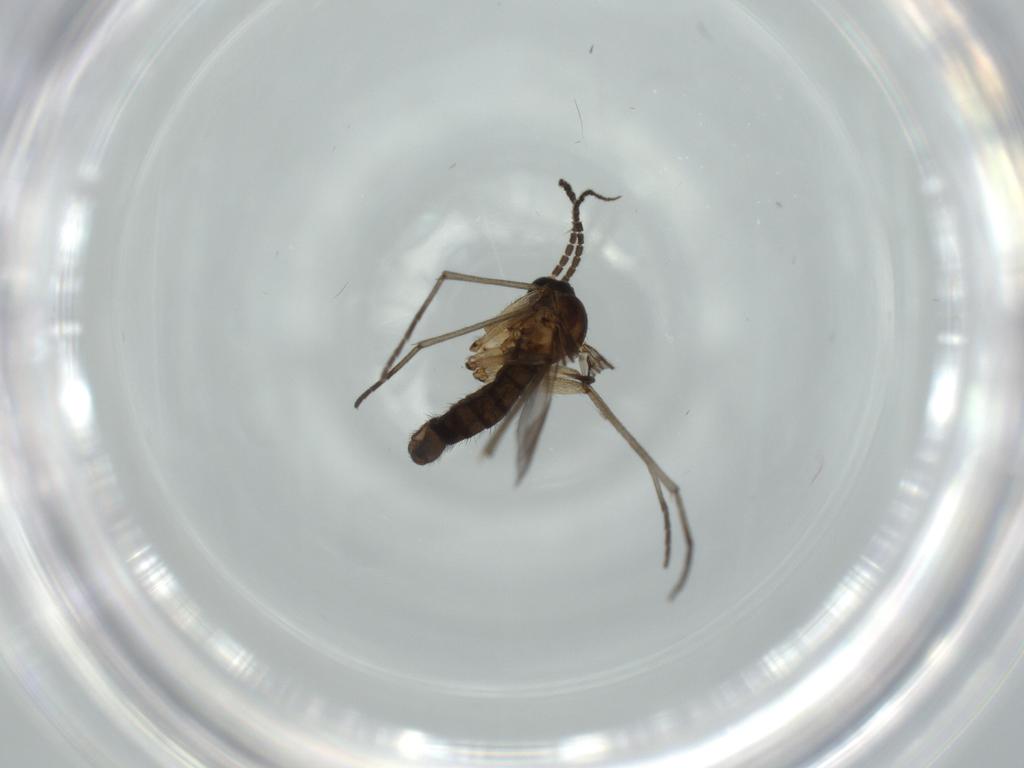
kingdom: Animalia
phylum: Arthropoda
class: Insecta
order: Diptera
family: Sciaridae
